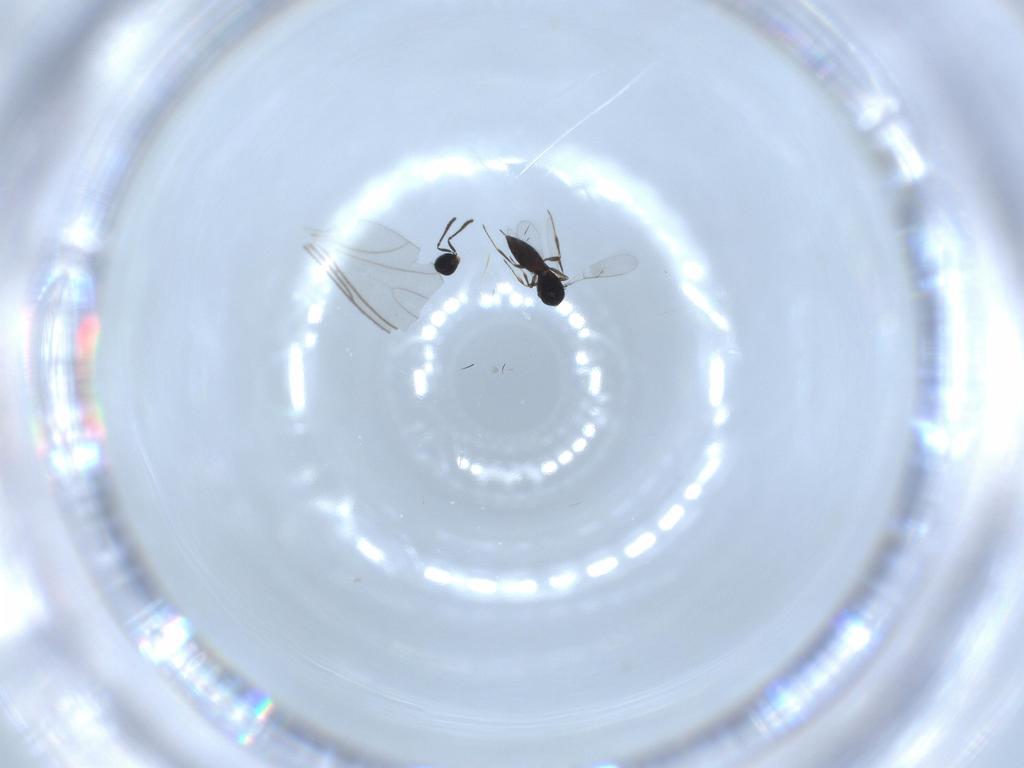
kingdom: Animalia
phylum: Arthropoda
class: Insecta
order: Hymenoptera
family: Scelionidae
